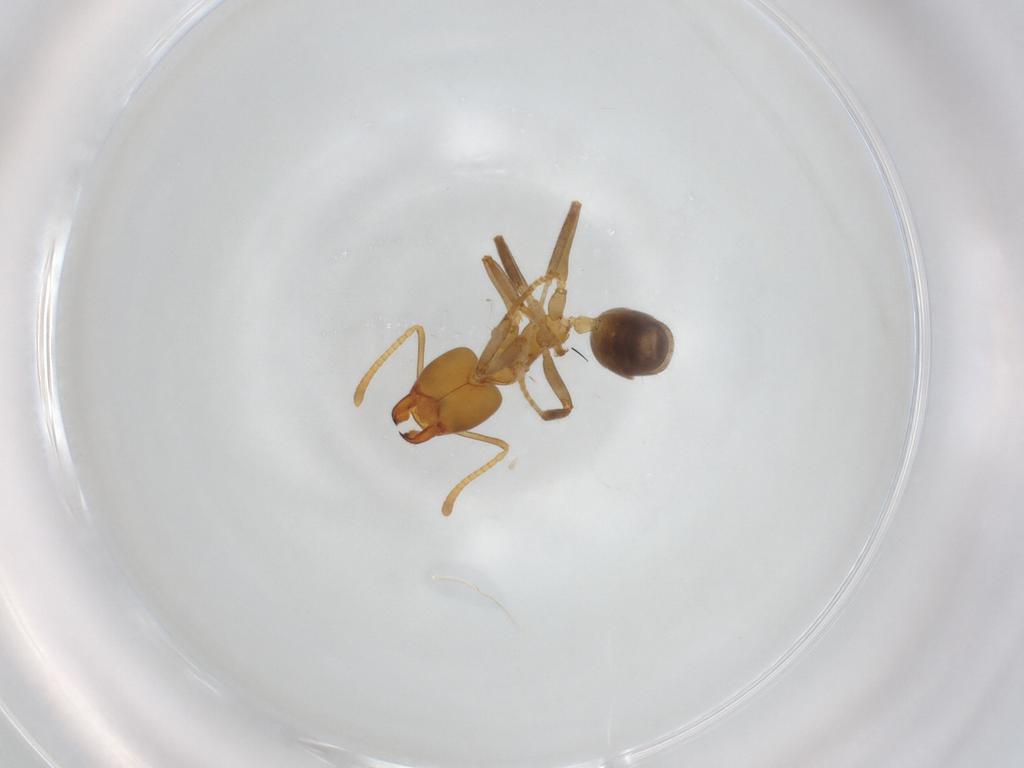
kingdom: Animalia
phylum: Arthropoda
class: Insecta
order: Hymenoptera
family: Formicidae
